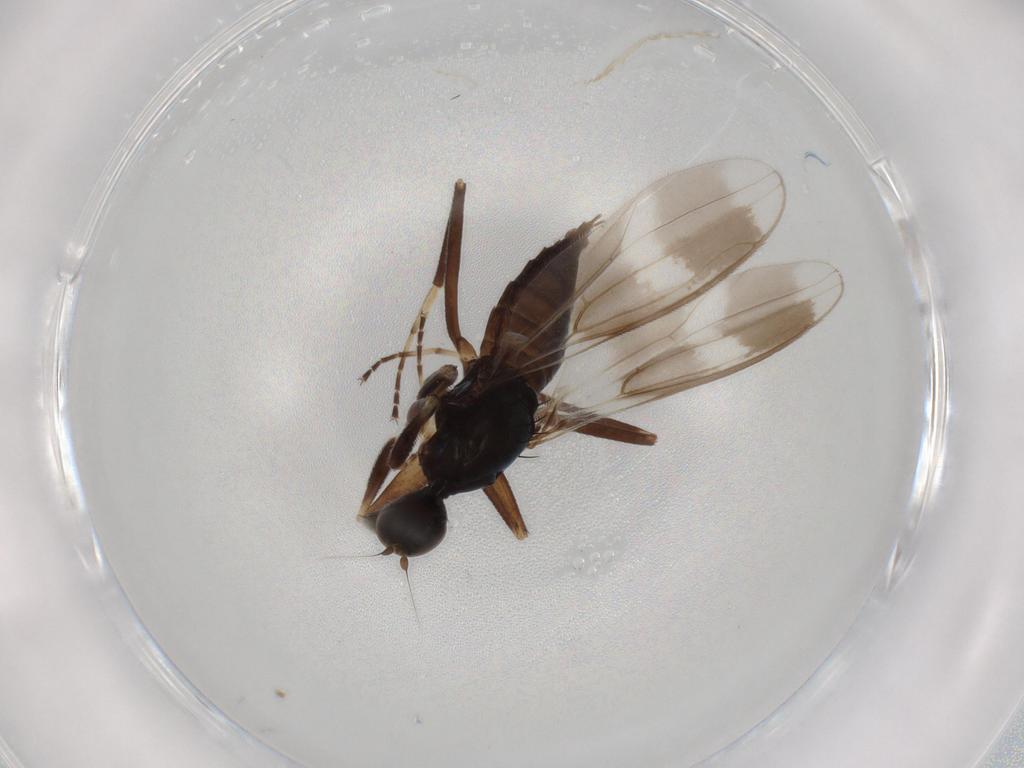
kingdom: Animalia
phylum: Arthropoda
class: Insecta
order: Diptera
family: Hybotidae
